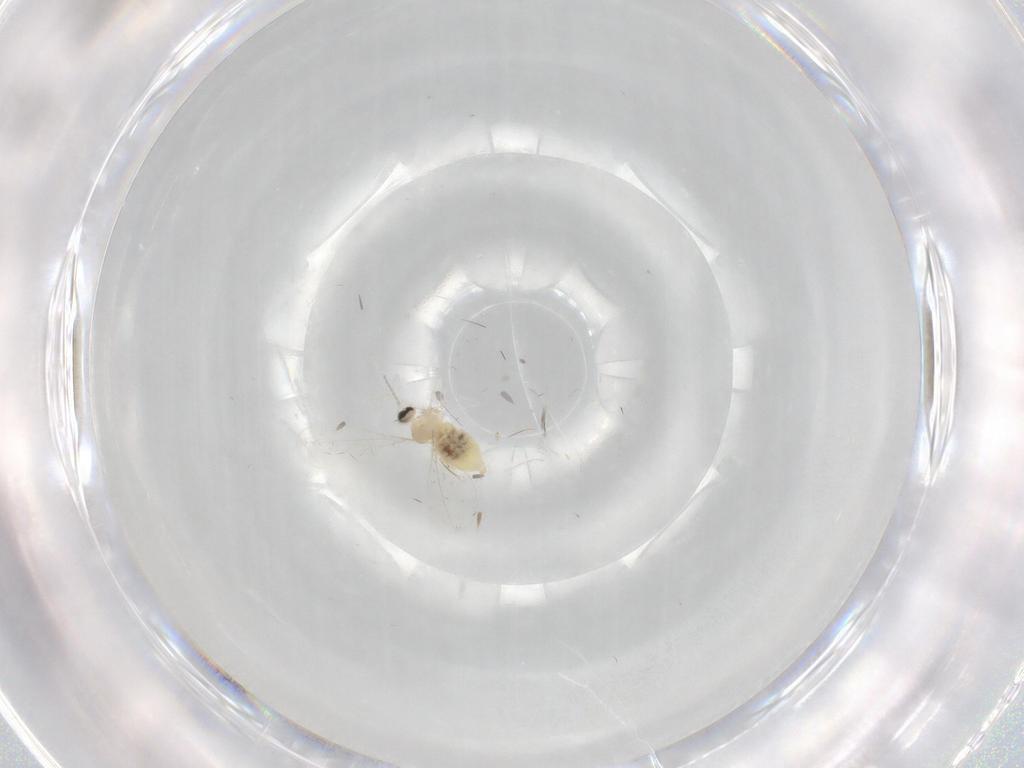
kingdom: Animalia
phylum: Arthropoda
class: Insecta
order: Diptera
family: Cecidomyiidae
